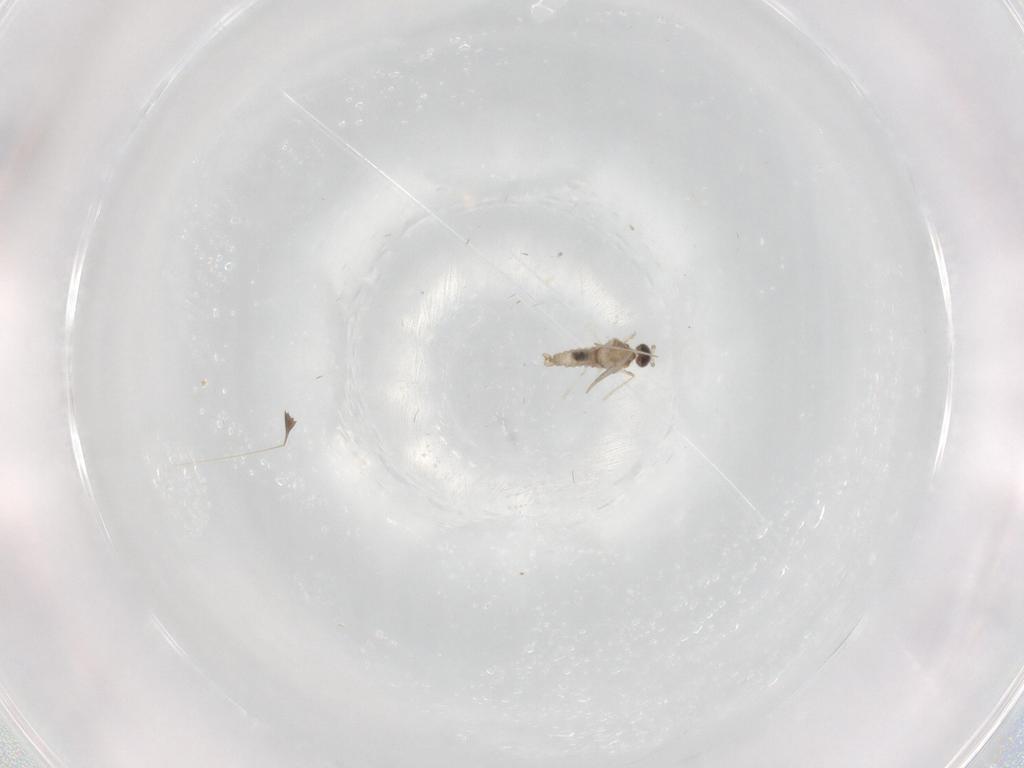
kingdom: Animalia
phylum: Arthropoda
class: Insecta
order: Diptera
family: Cecidomyiidae
